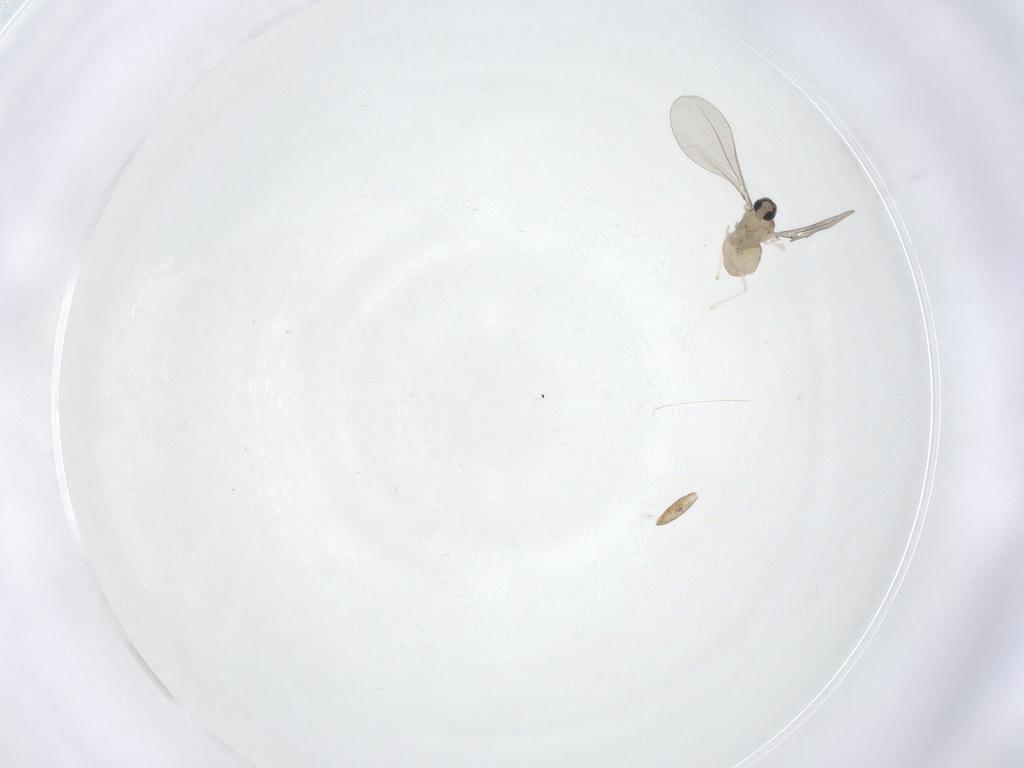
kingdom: Animalia
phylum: Arthropoda
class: Insecta
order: Diptera
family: Cecidomyiidae
